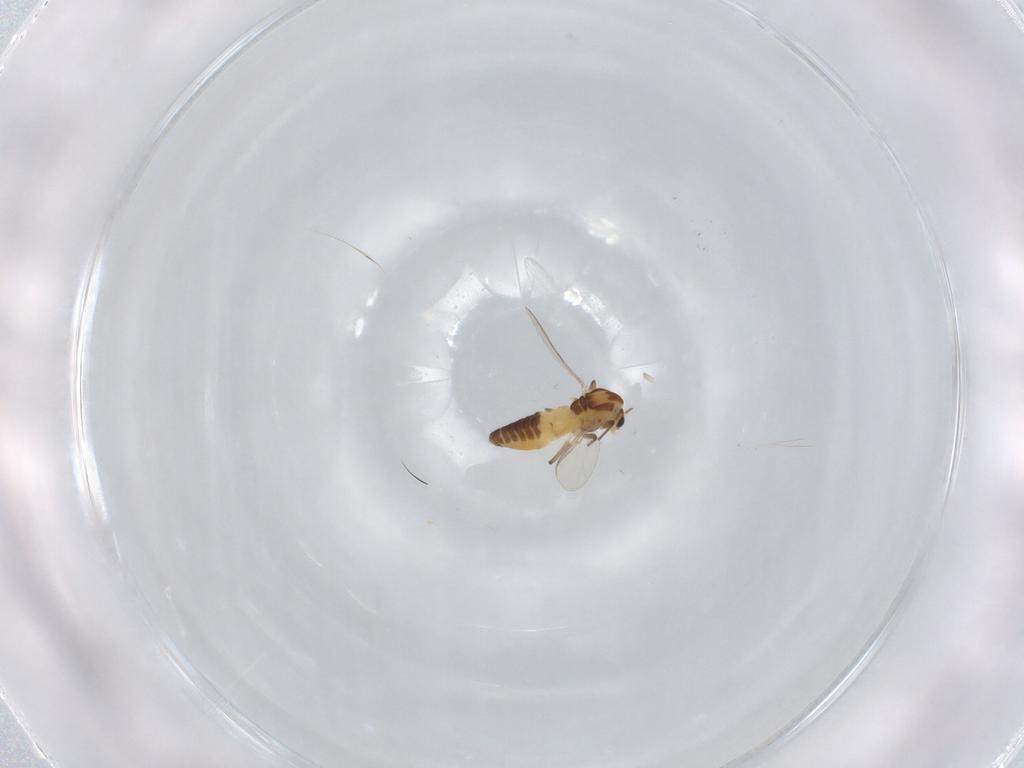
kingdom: Animalia
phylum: Arthropoda
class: Insecta
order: Diptera
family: Chironomidae
